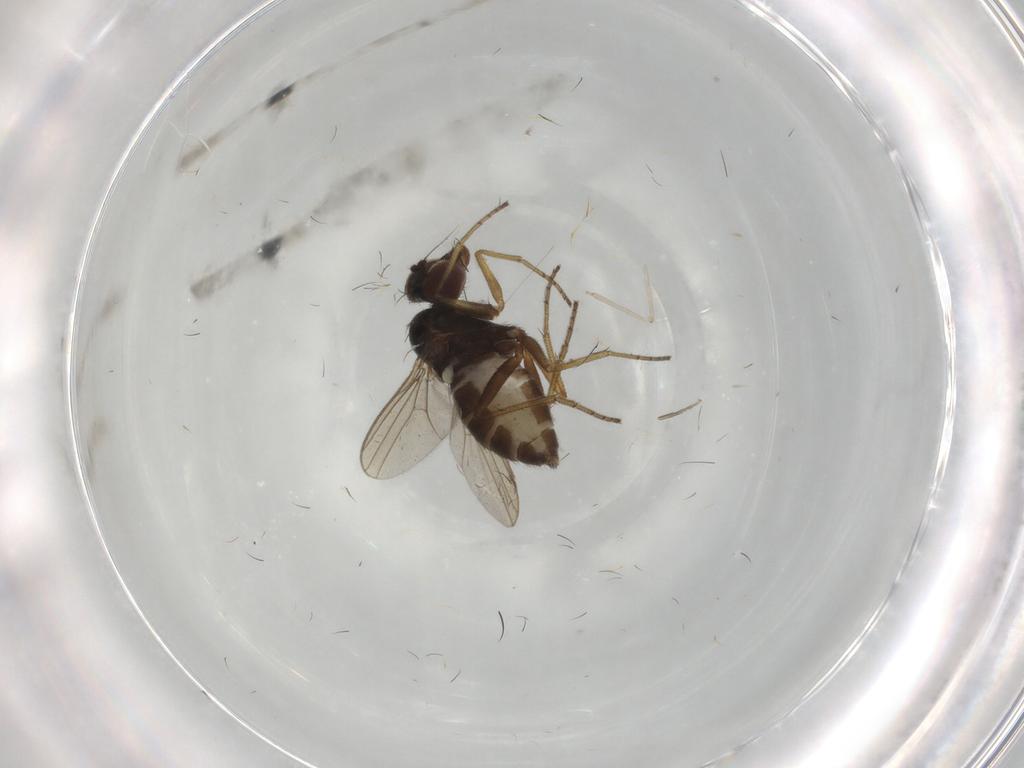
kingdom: Animalia
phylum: Arthropoda
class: Insecta
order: Diptera
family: Dolichopodidae
